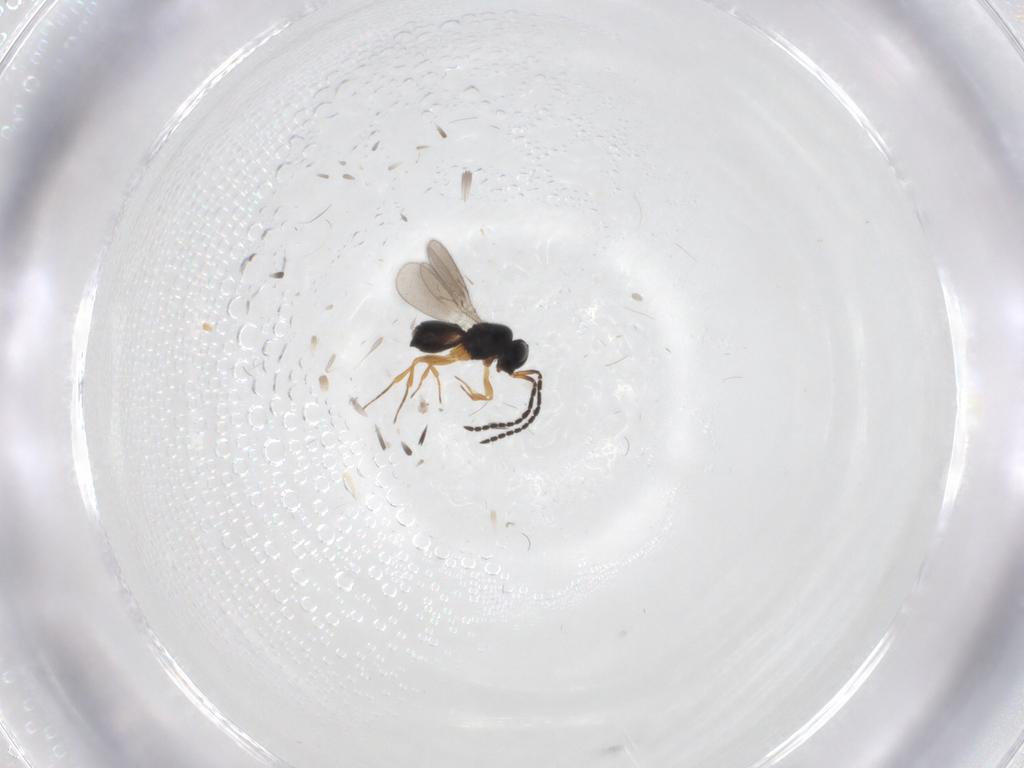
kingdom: Animalia
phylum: Arthropoda
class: Insecta
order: Hymenoptera
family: Scelionidae
